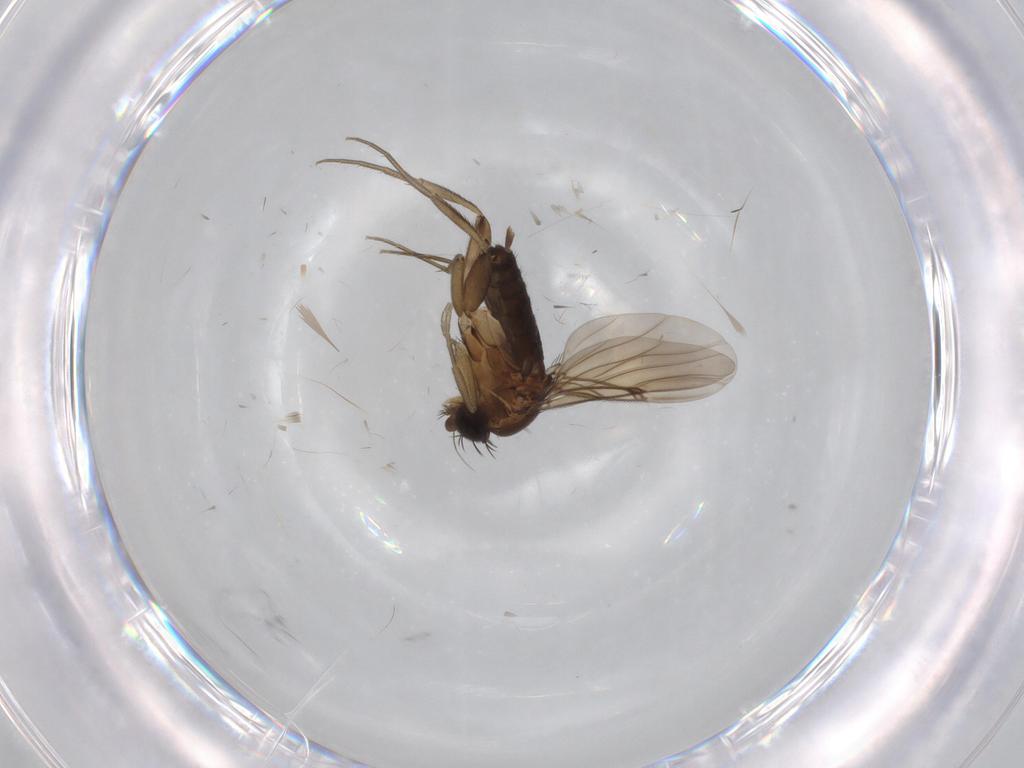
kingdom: Animalia
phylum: Arthropoda
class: Insecta
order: Diptera
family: Phoridae
